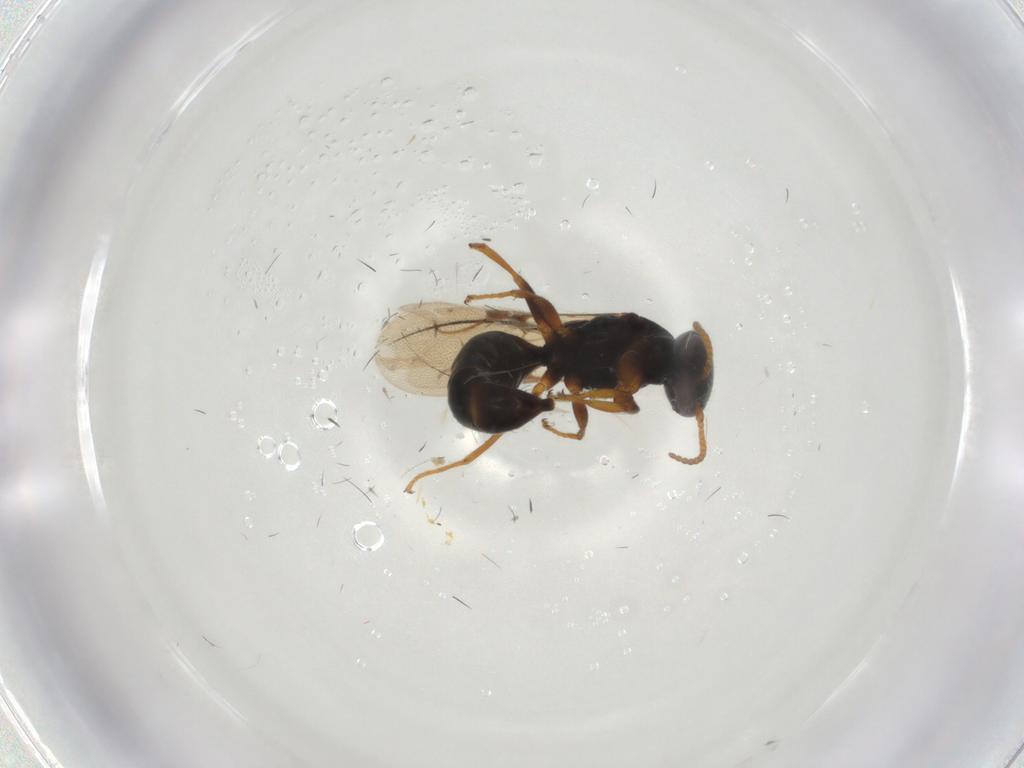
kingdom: Animalia
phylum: Arthropoda
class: Insecta
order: Hymenoptera
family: Bethylidae
